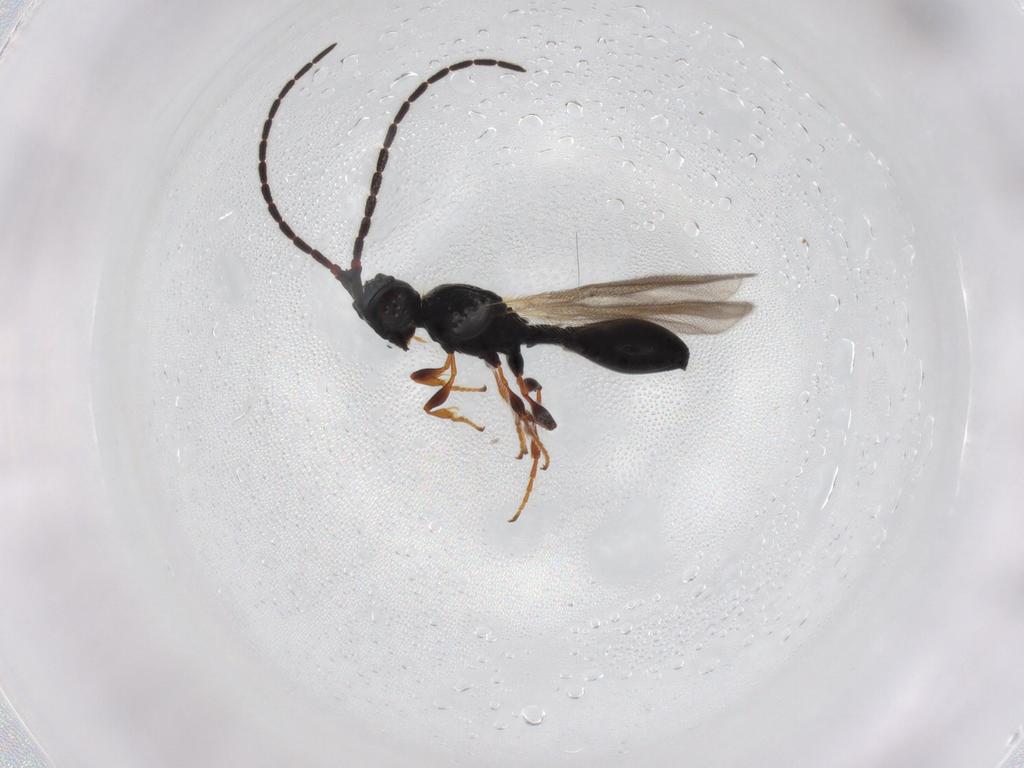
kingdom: Animalia
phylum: Arthropoda
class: Insecta
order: Hymenoptera
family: Diapriidae
